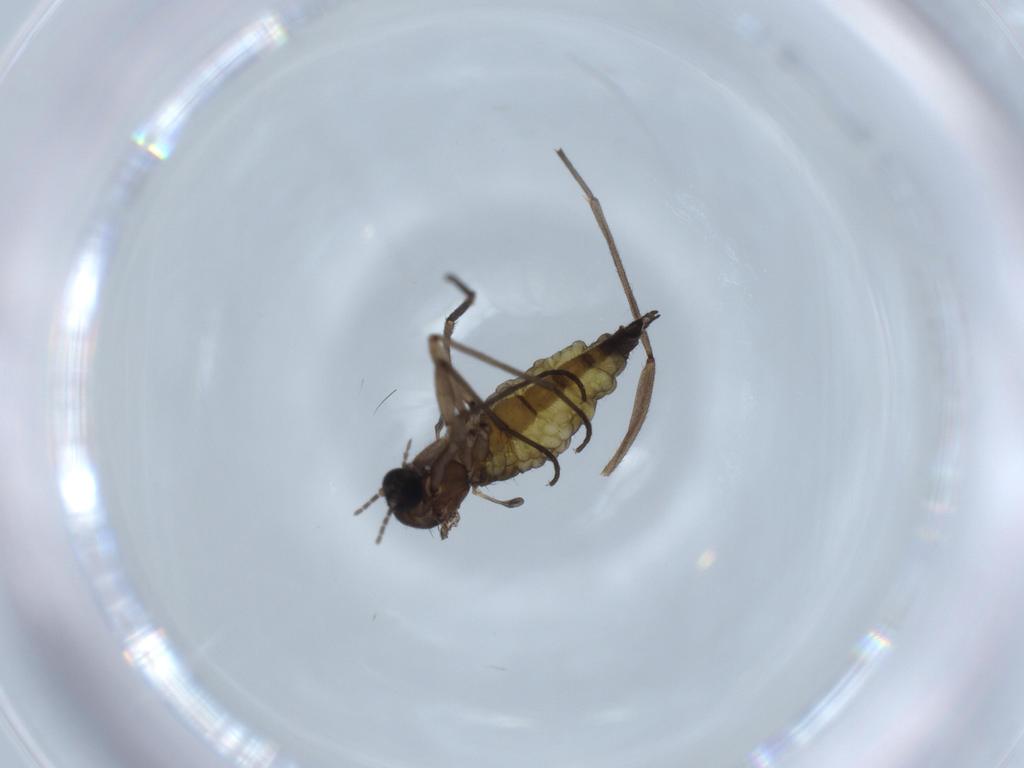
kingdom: Animalia
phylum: Arthropoda
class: Insecta
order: Diptera
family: Sciaridae
